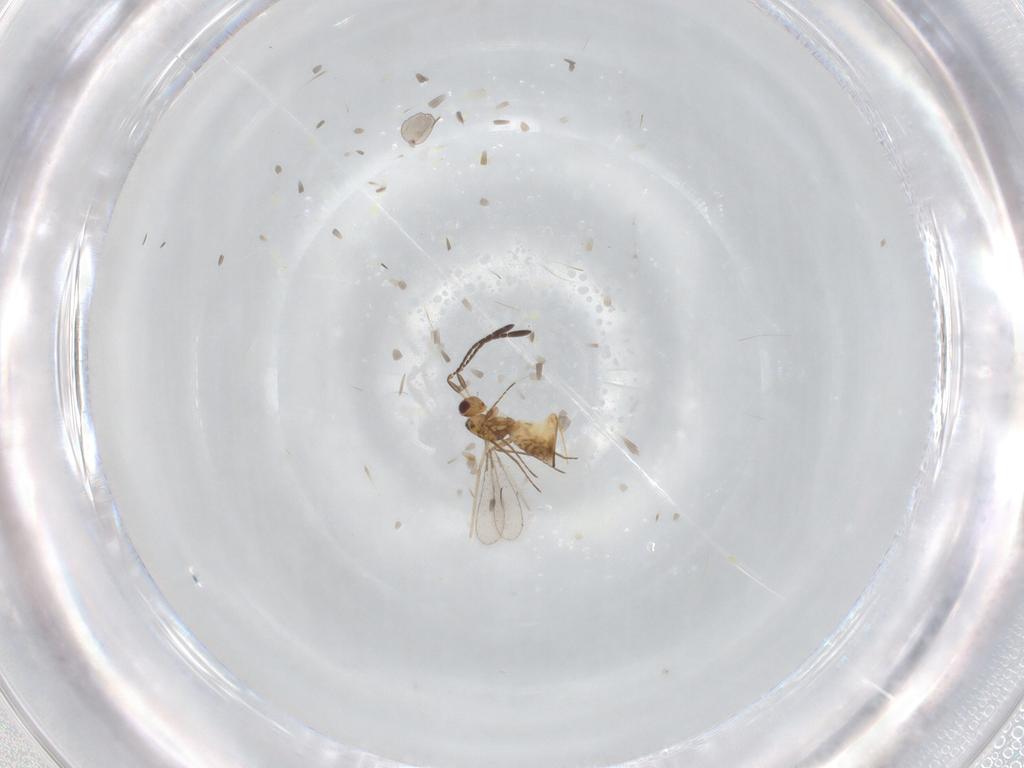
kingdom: Animalia
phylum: Arthropoda
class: Insecta
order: Hymenoptera
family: Mymaridae
